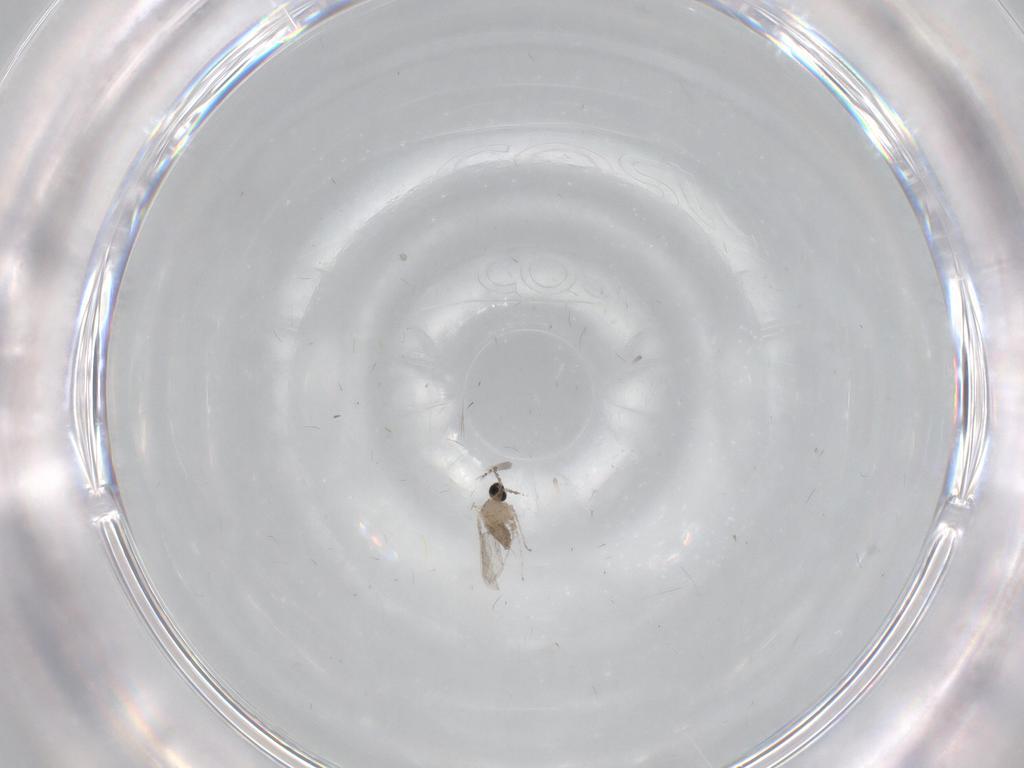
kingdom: Animalia
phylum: Arthropoda
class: Insecta
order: Diptera
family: Cecidomyiidae
